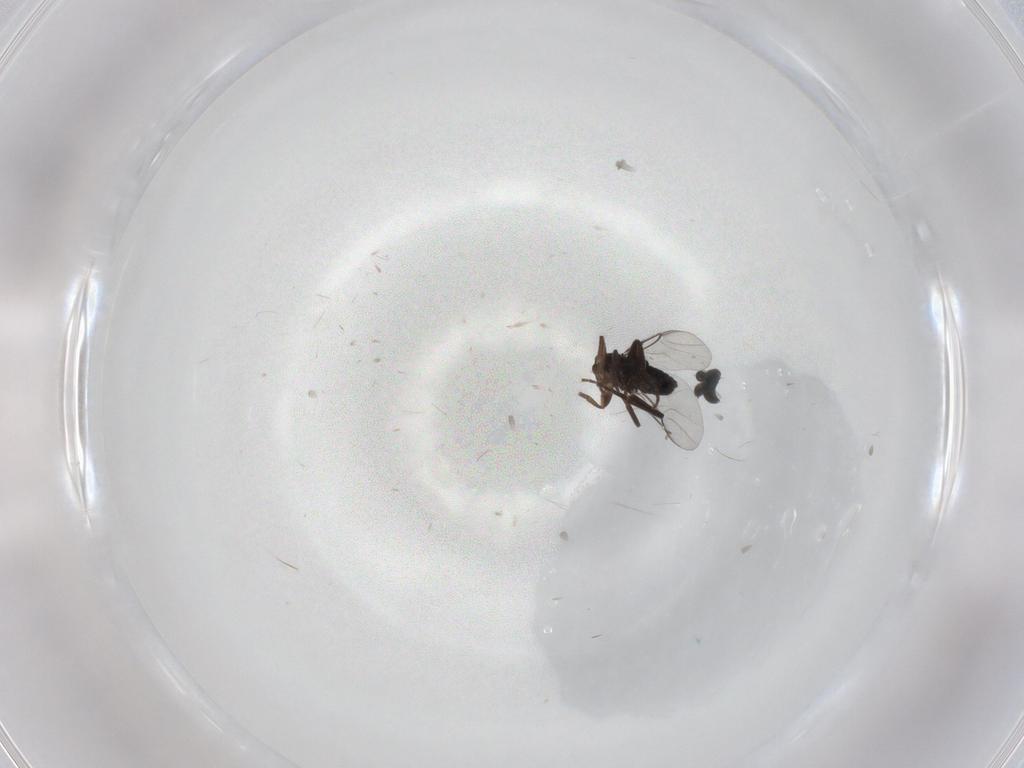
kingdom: Animalia
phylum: Arthropoda
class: Insecta
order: Diptera
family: Phoridae
